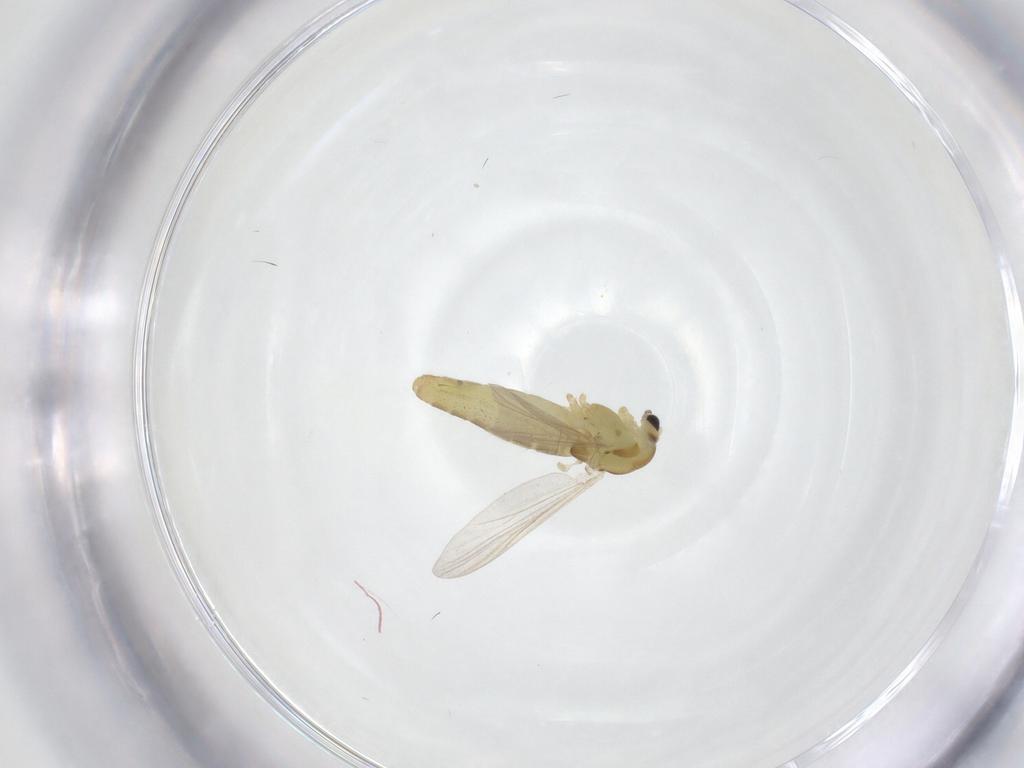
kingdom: Animalia
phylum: Arthropoda
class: Insecta
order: Diptera
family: Chironomidae
